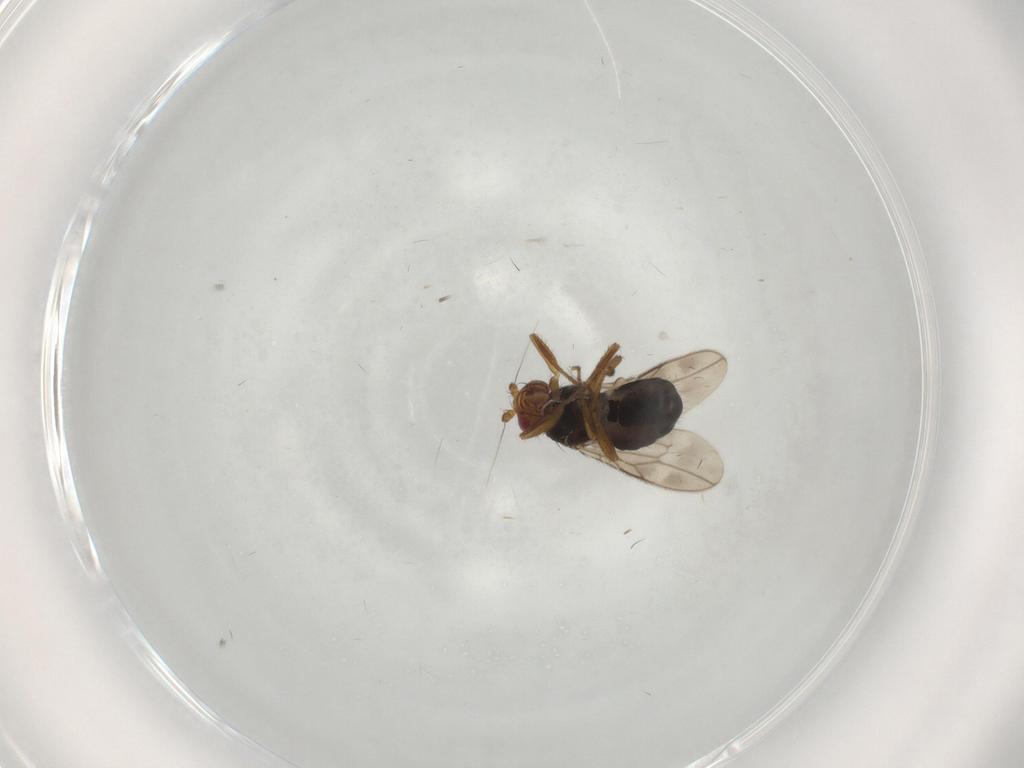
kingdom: Animalia
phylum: Arthropoda
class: Insecta
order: Diptera
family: Sphaeroceridae
